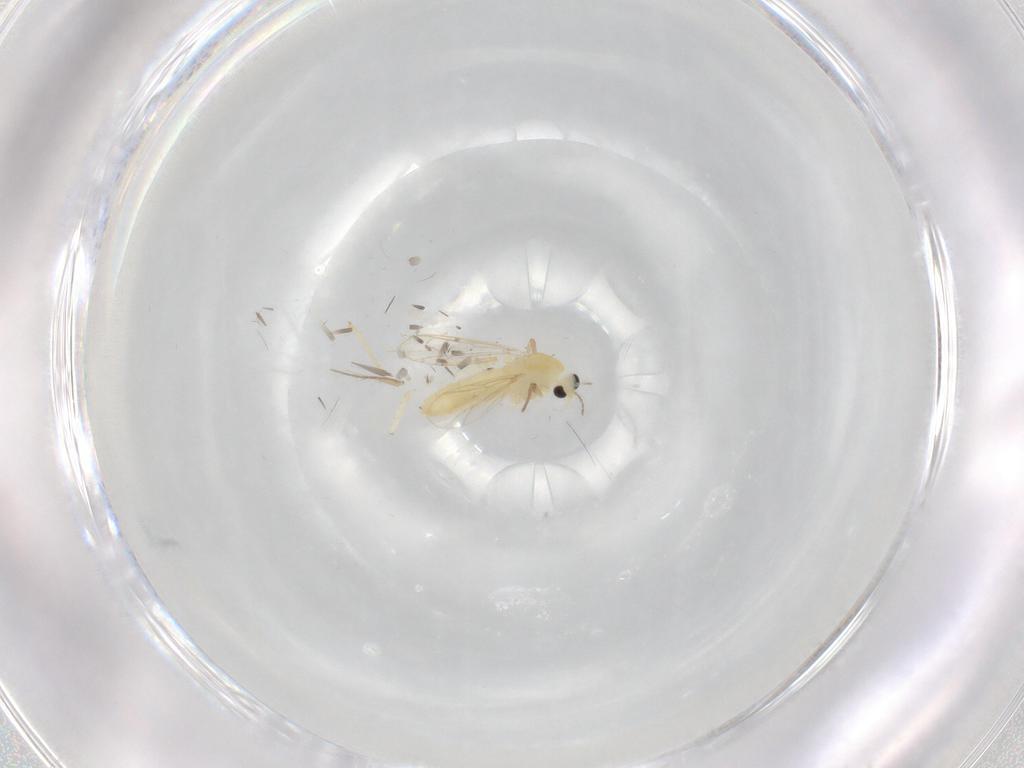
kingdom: Animalia
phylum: Arthropoda
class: Insecta
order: Diptera
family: Chironomidae
